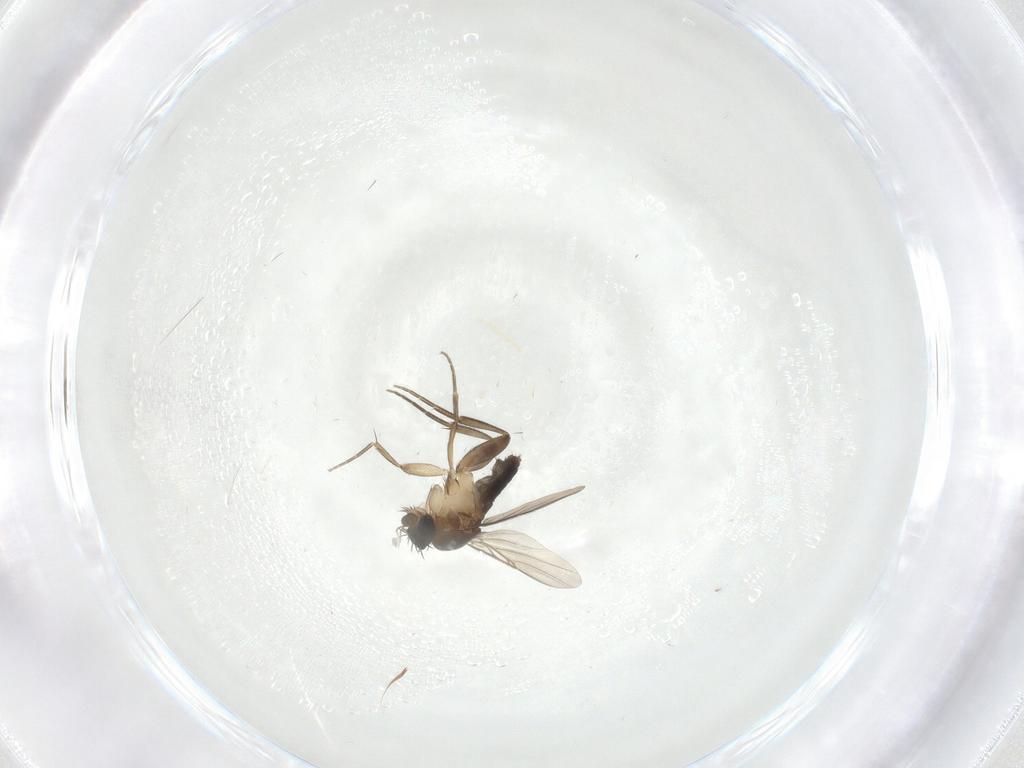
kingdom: Animalia
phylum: Arthropoda
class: Insecta
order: Diptera
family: Phoridae
